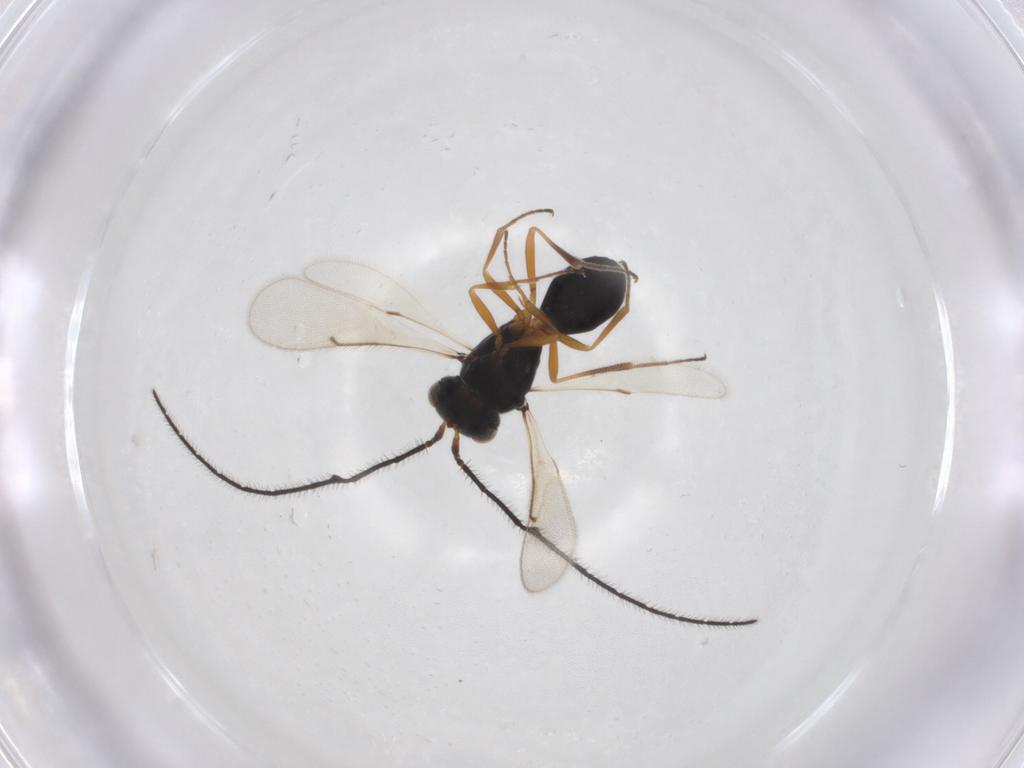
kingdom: Animalia
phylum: Arthropoda
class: Insecta
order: Hymenoptera
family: Scelionidae
